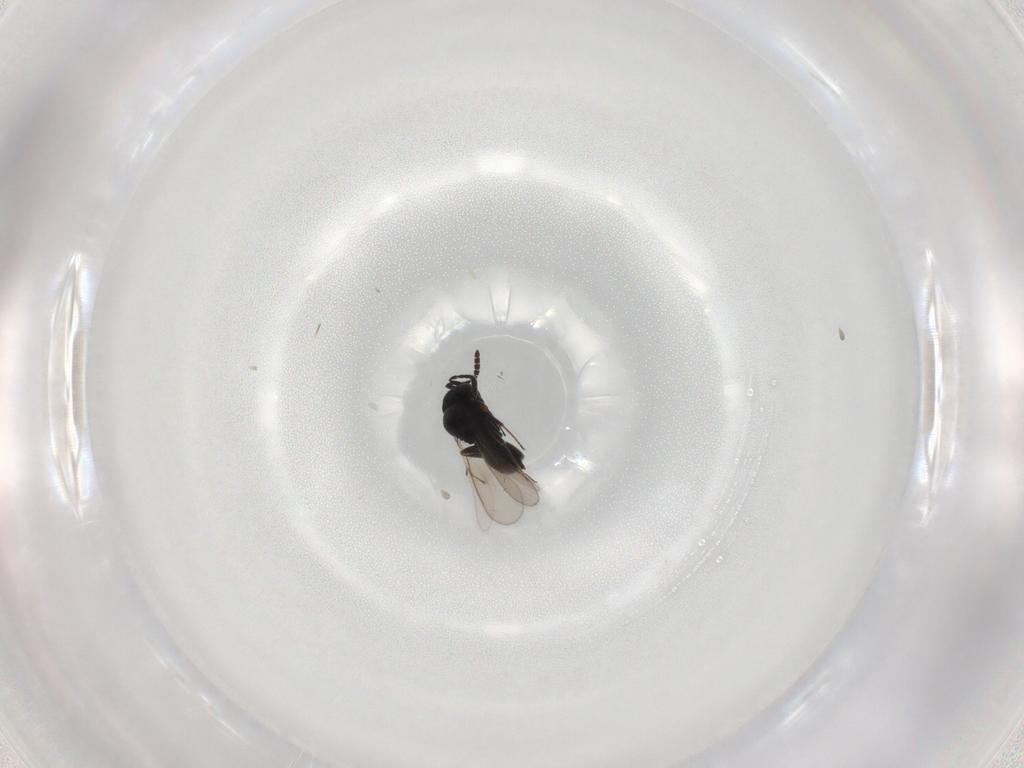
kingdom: Animalia
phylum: Arthropoda
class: Insecta
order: Hymenoptera
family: Scelionidae
